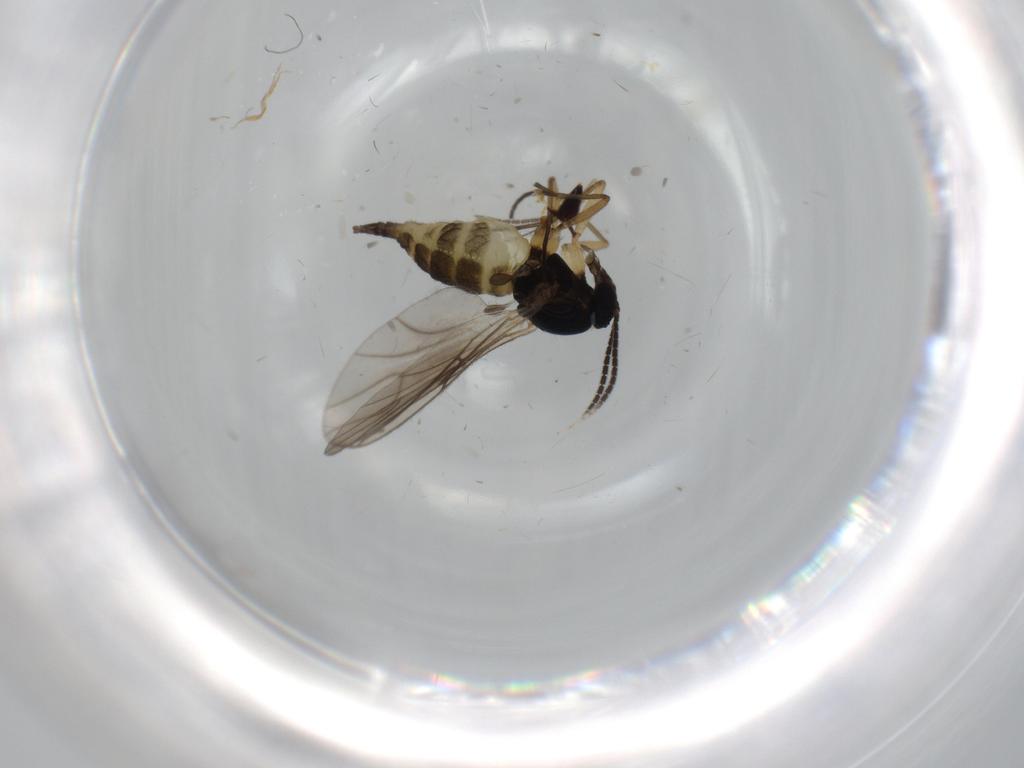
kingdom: Animalia
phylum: Arthropoda
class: Insecta
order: Diptera
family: Sciaridae
